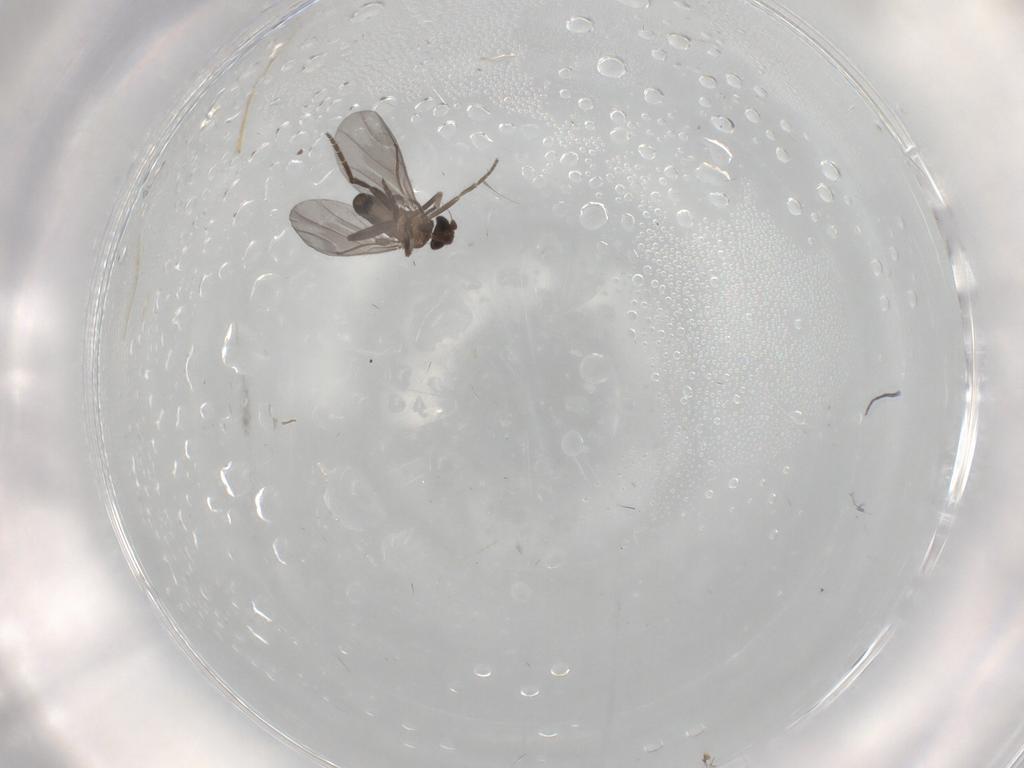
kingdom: Animalia
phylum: Arthropoda
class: Insecta
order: Diptera
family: Phoridae
